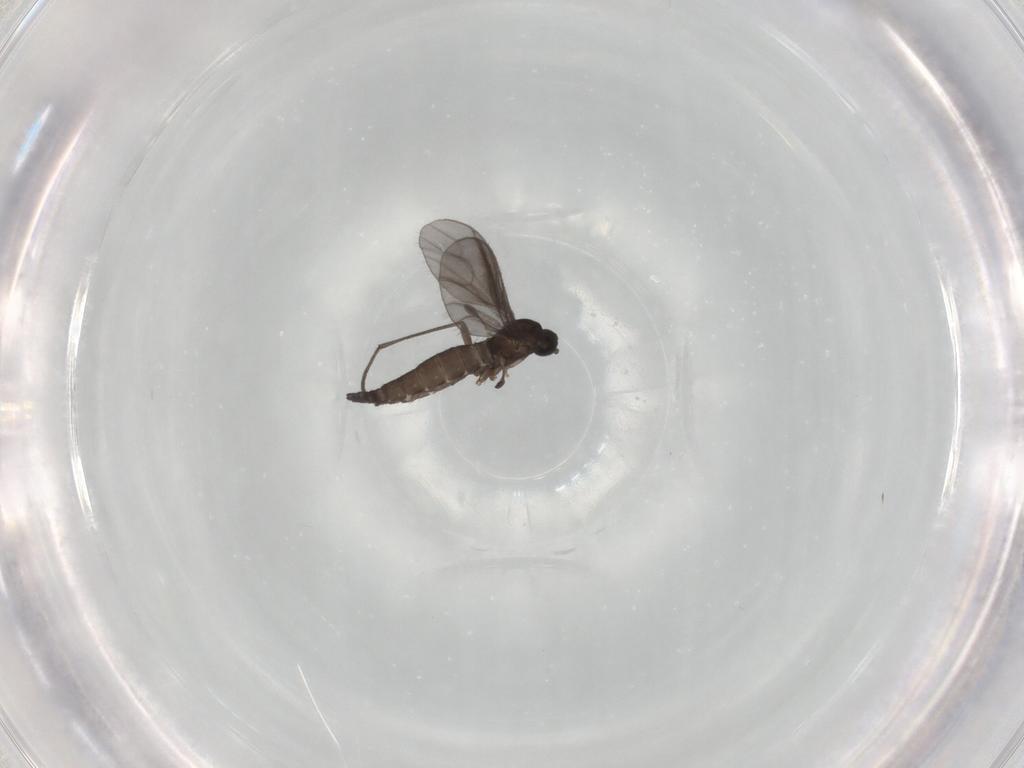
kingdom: Animalia
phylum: Arthropoda
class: Insecta
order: Diptera
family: Sciaridae
